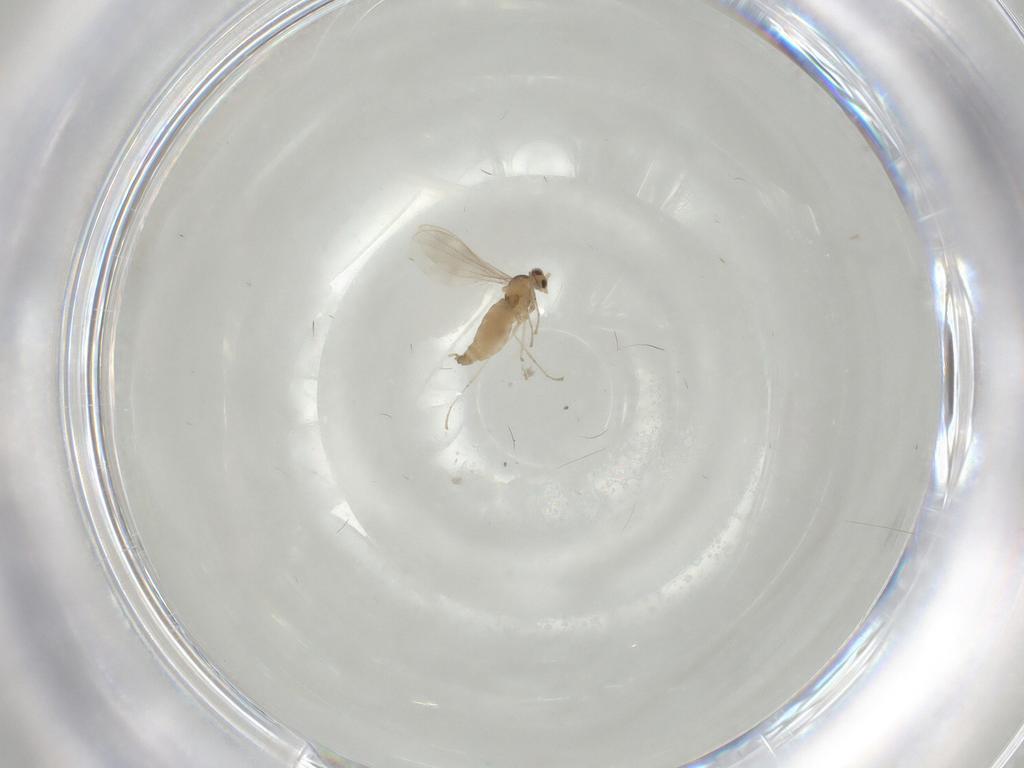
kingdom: Animalia
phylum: Arthropoda
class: Insecta
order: Diptera
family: Cecidomyiidae
